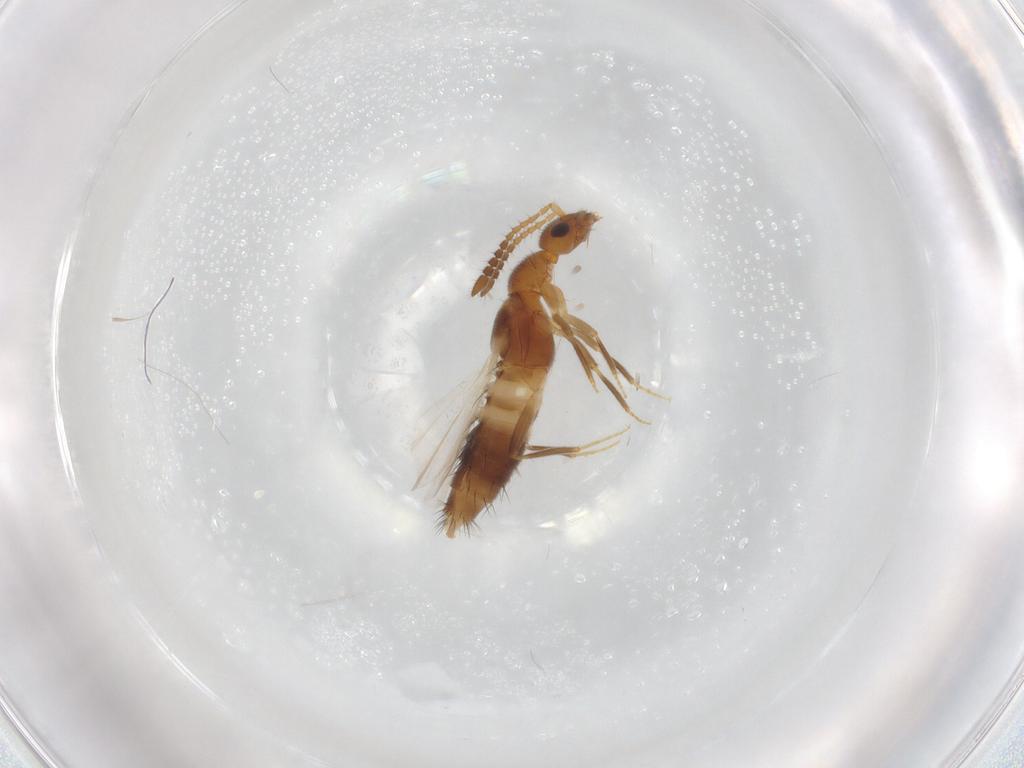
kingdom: Animalia
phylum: Arthropoda
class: Insecta
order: Coleoptera
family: Staphylinidae
